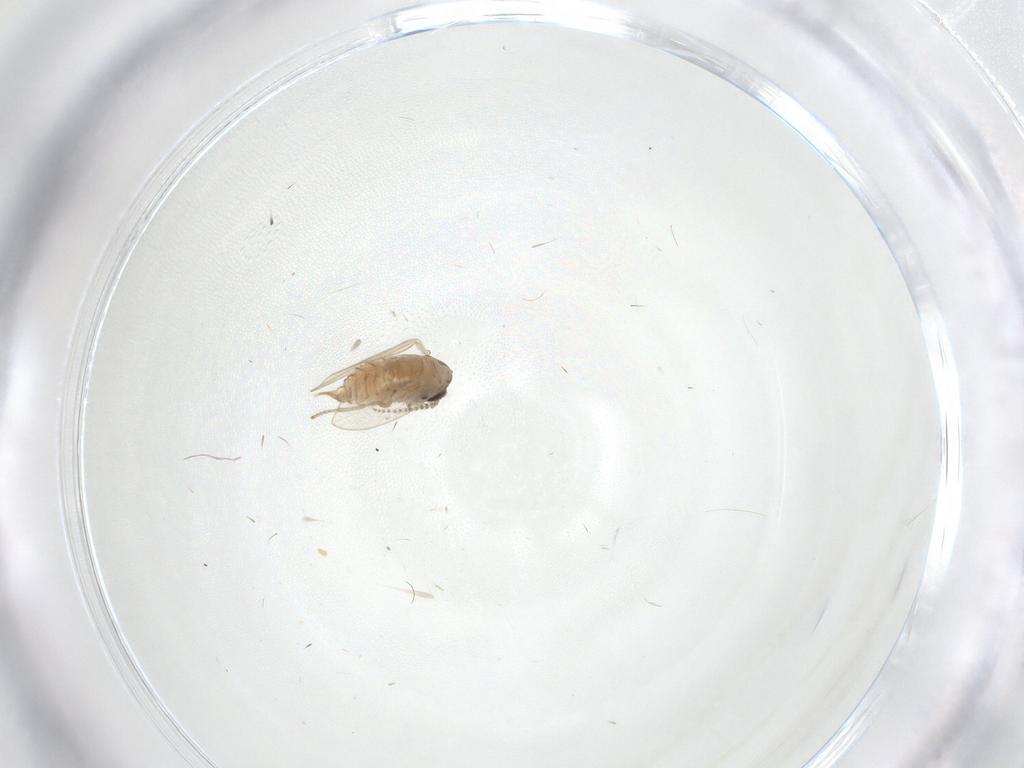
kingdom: Animalia
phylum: Arthropoda
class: Insecta
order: Diptera
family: Psychodidae
